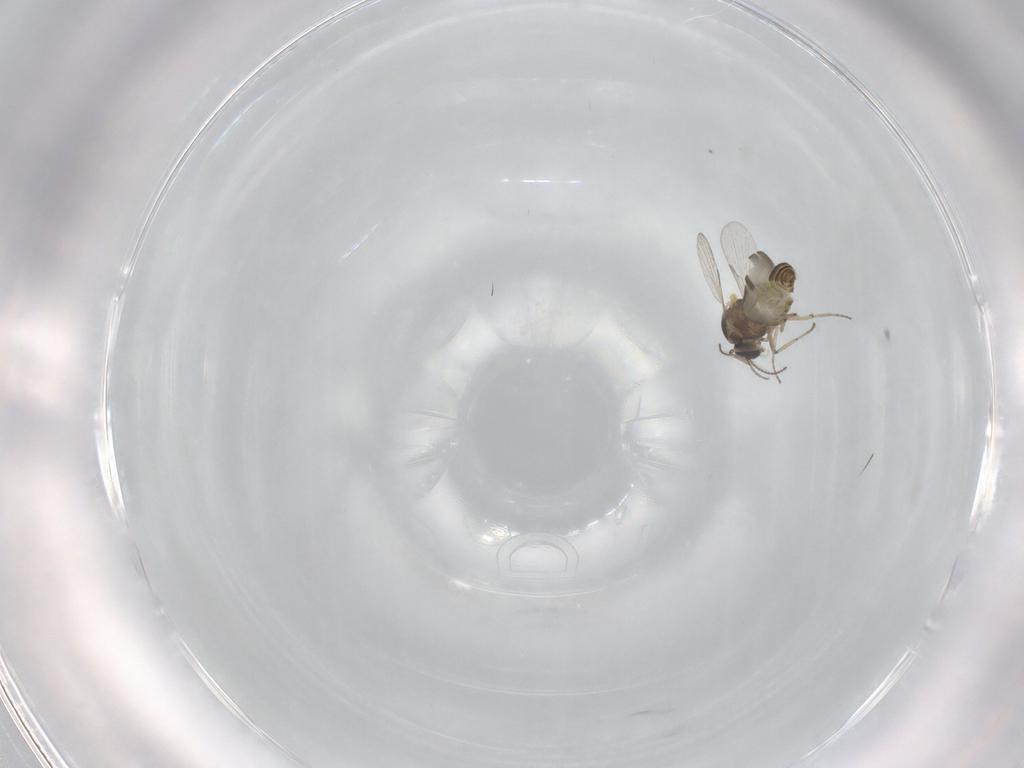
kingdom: Animalia
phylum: Arthropoda
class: Insecta
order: Diptera
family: Ceratopogonidae
